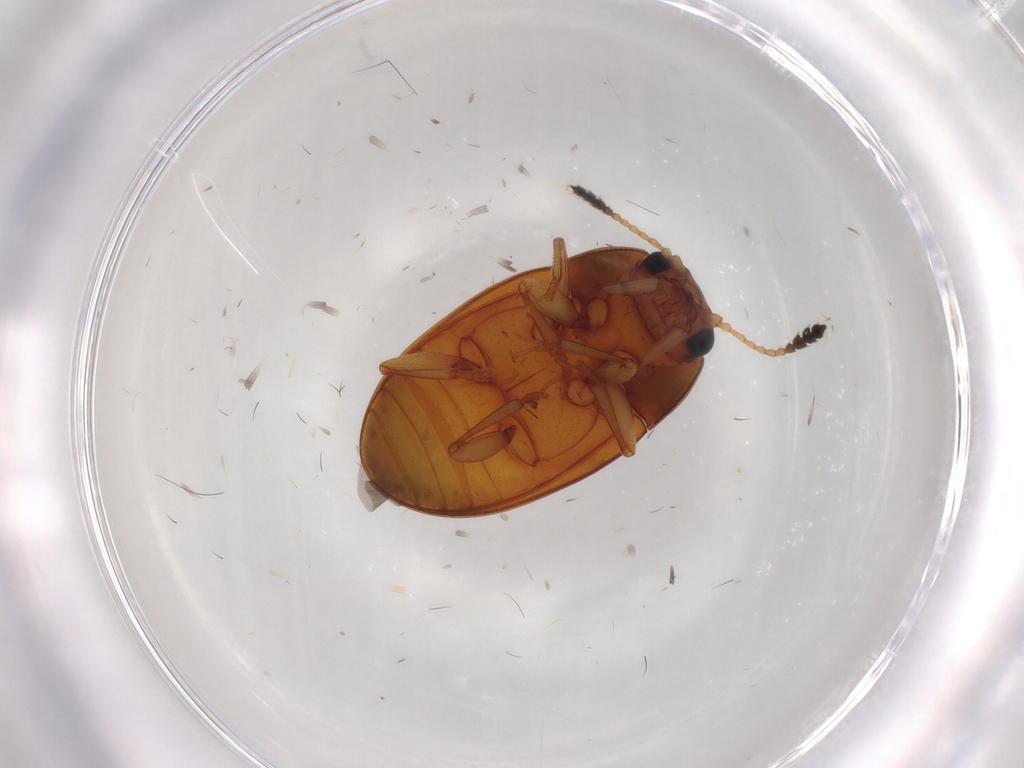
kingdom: Animalia
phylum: Arthropoda
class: Insecta
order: Coleoptera
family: Erotylidae
